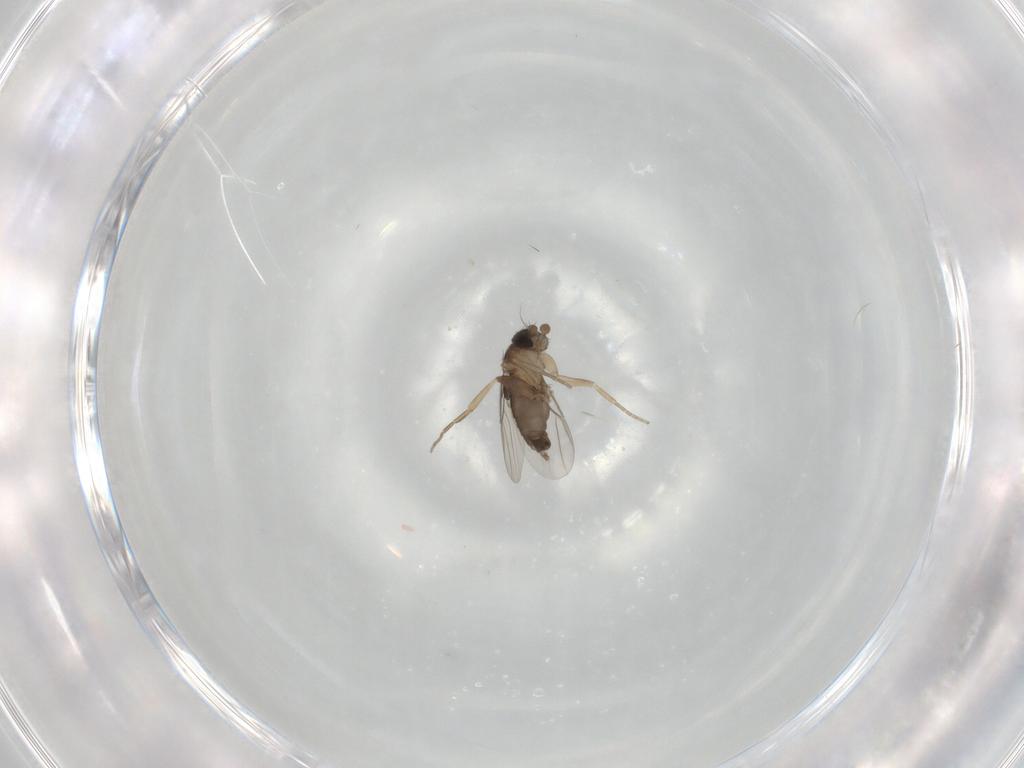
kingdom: Animalia
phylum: Arthropoda
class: Insecta
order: Diptera
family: Phoridae
